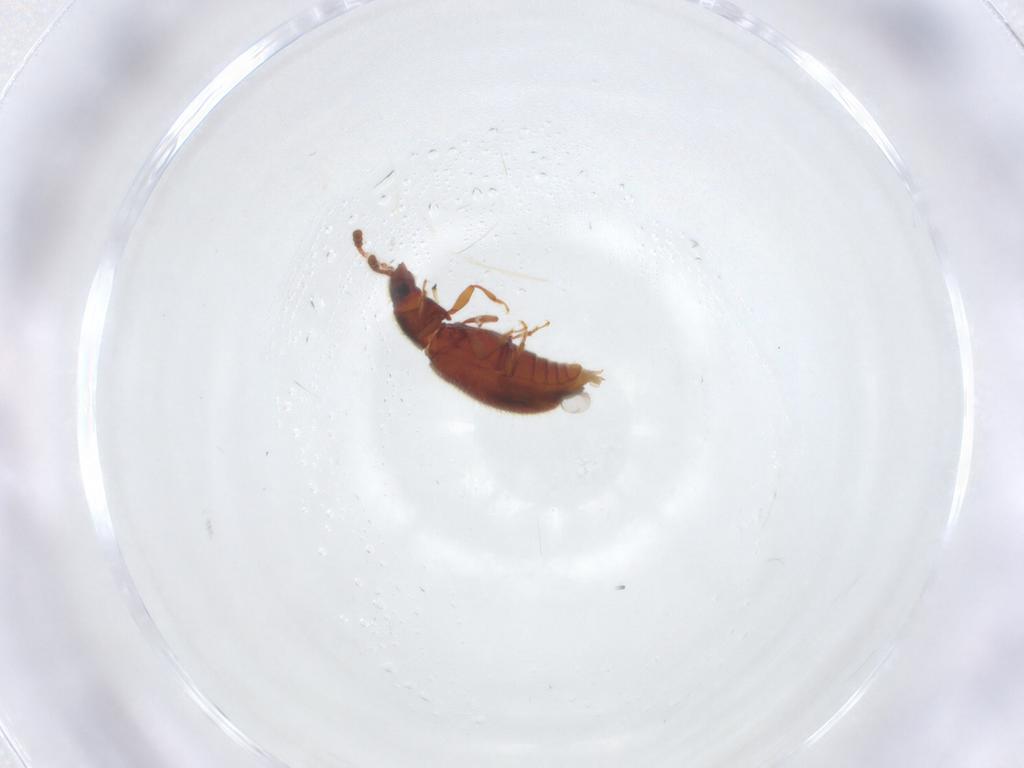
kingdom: Animalia
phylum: Arthropoda
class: Insecta
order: Coleoptera
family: Cryptophagidae
